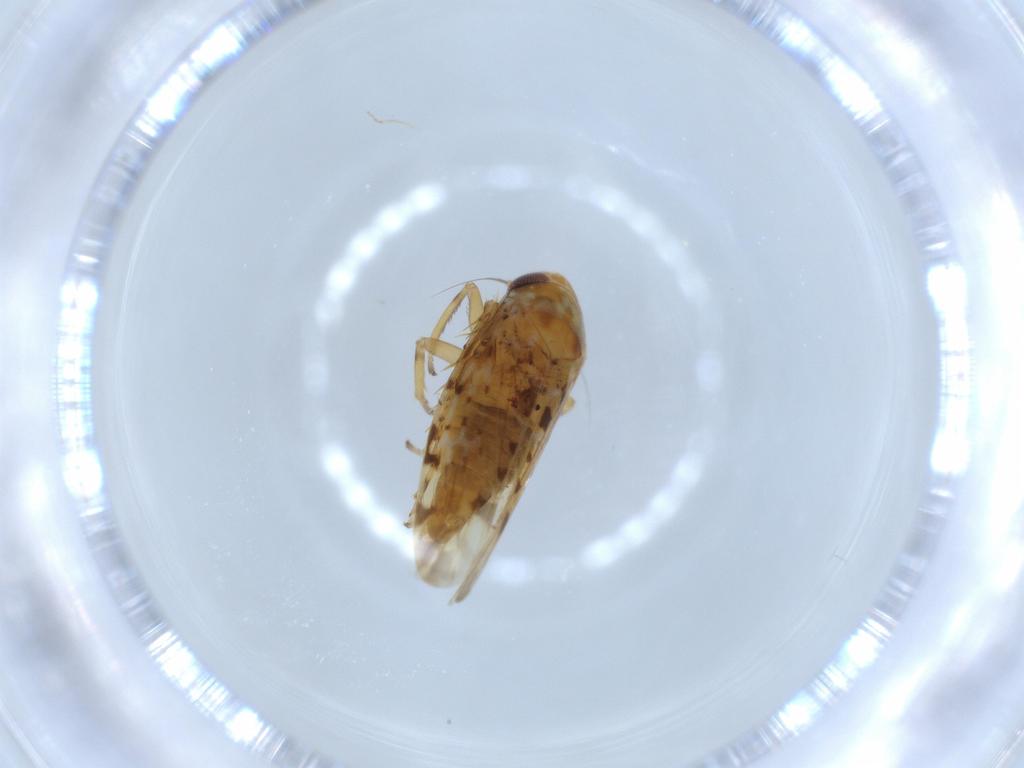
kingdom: Animalia
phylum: Arthropoda
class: Insecta
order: Hemiptera
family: Cicadellidae
